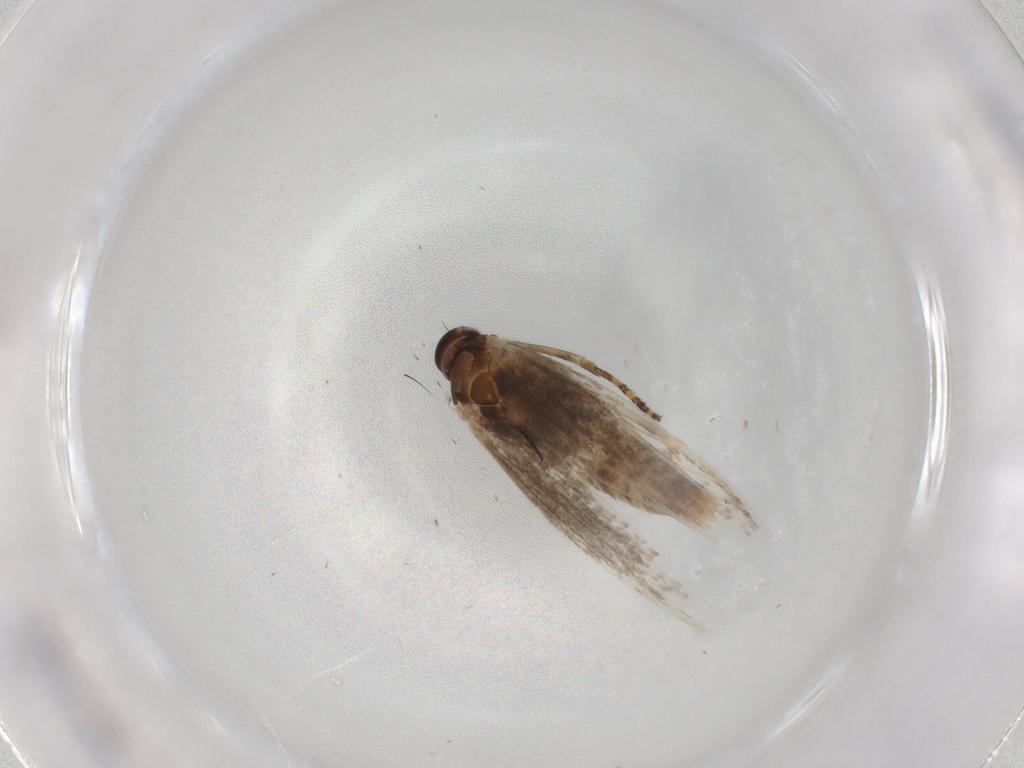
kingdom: Animalia
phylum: Arthropoda
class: Insecta
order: Lepidoptera
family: Momphidae
